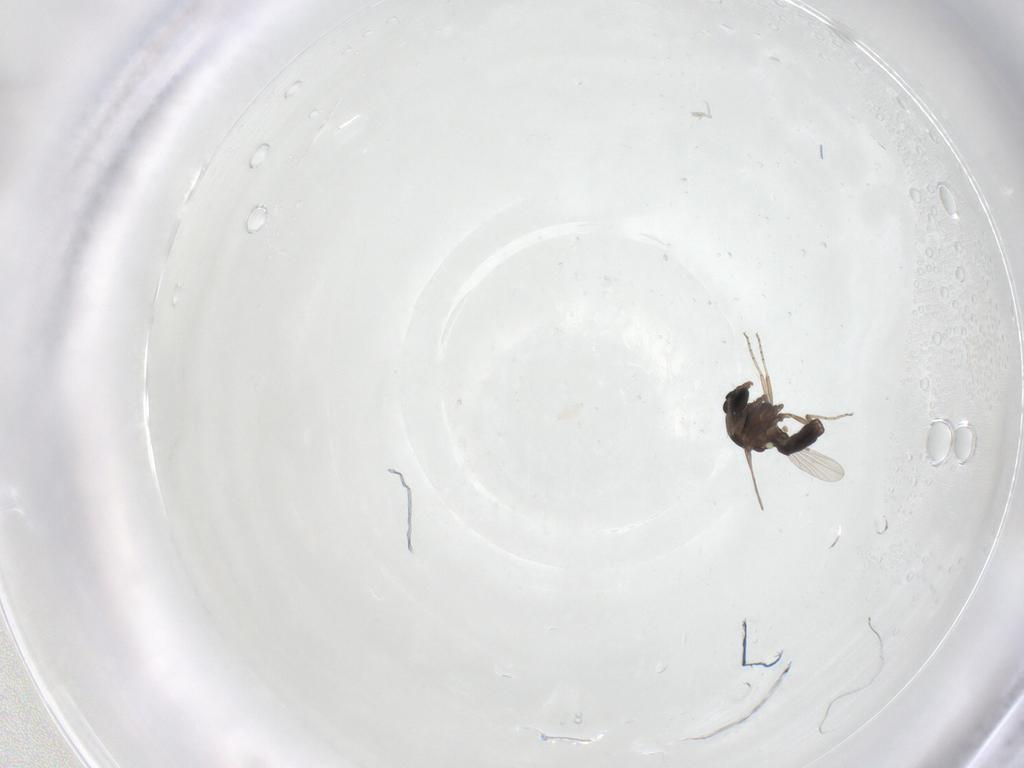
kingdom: Animalia
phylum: Arthropoda
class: Insecta
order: Diptera
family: Ceratopogonidae
